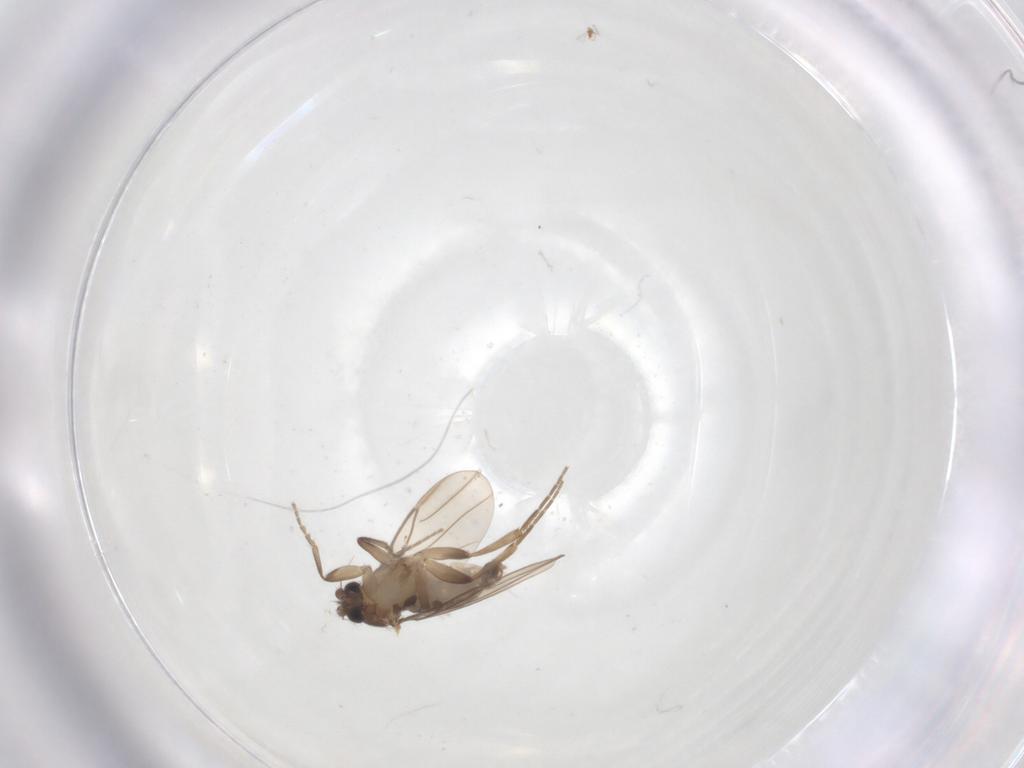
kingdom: Animalia
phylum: Arthropoda
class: Insecta
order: Diptera
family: Phoridae
